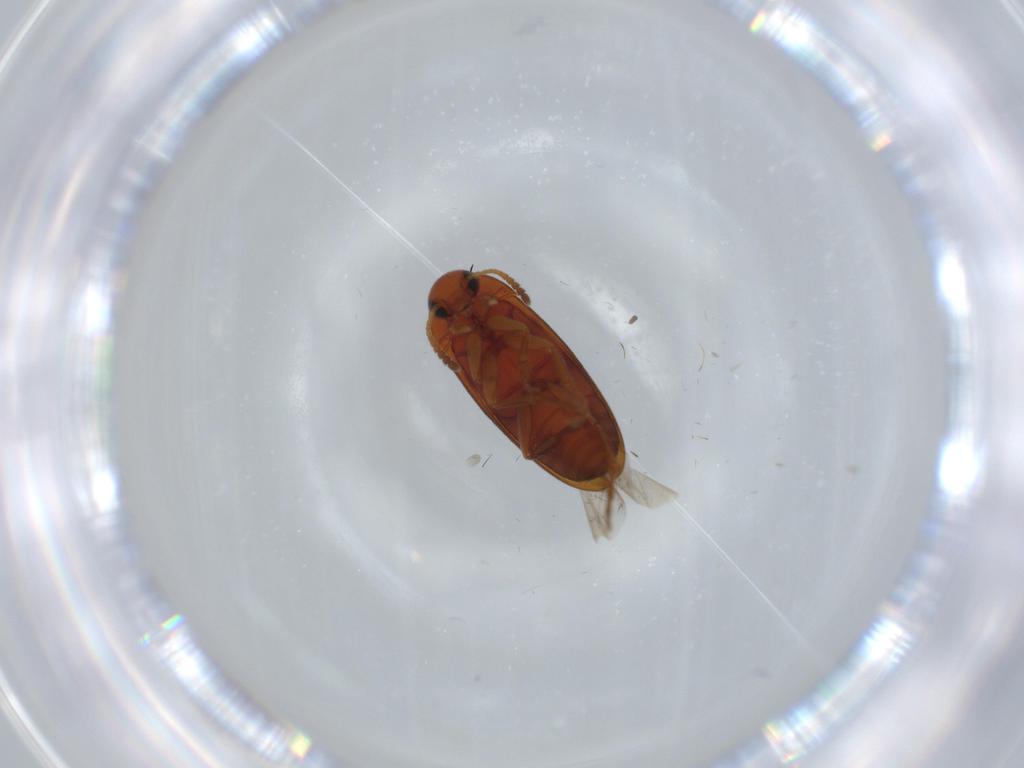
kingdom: Animalia
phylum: Arthropoda
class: Insecta
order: Coleoptera
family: Scraptiidae
